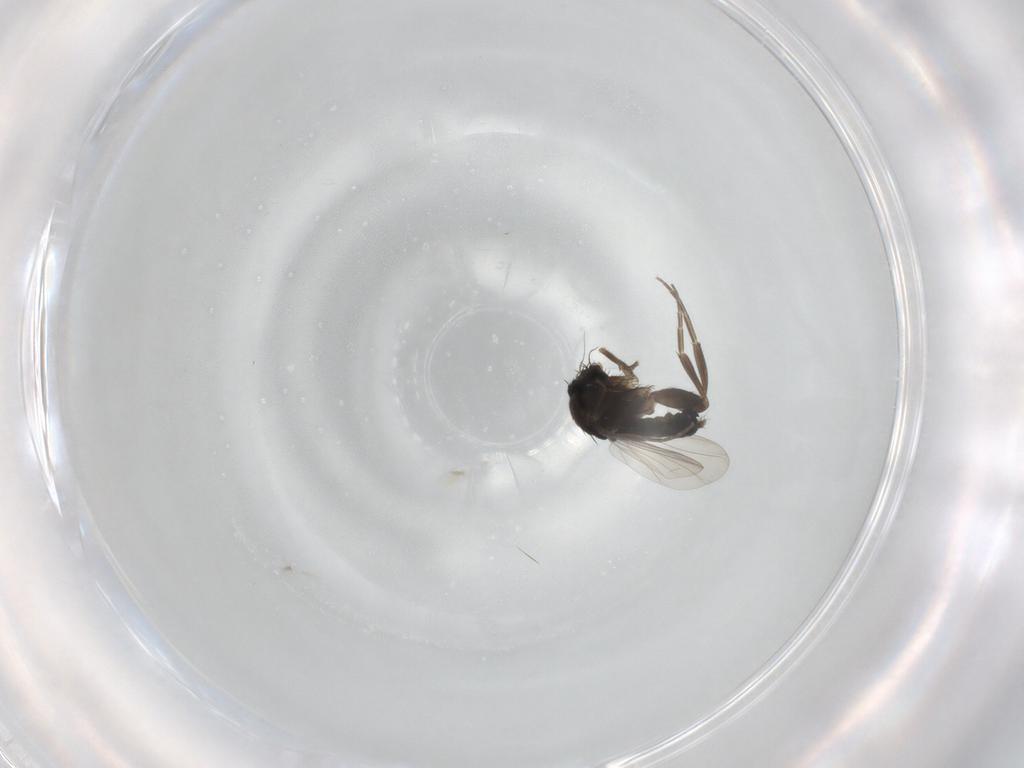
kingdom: Animalia
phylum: Arthropoda
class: Insecta
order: Diptera
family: Phoridae
